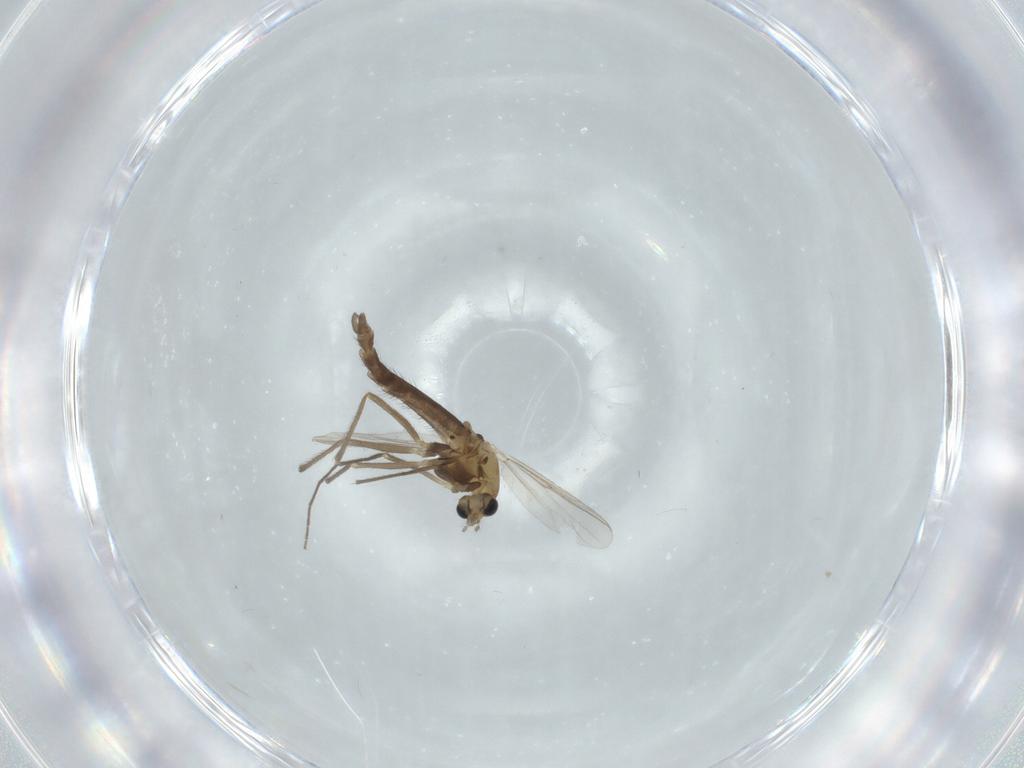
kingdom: Animalia
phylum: Arthropoda
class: Insecta
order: Diptera
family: Chironomidae
